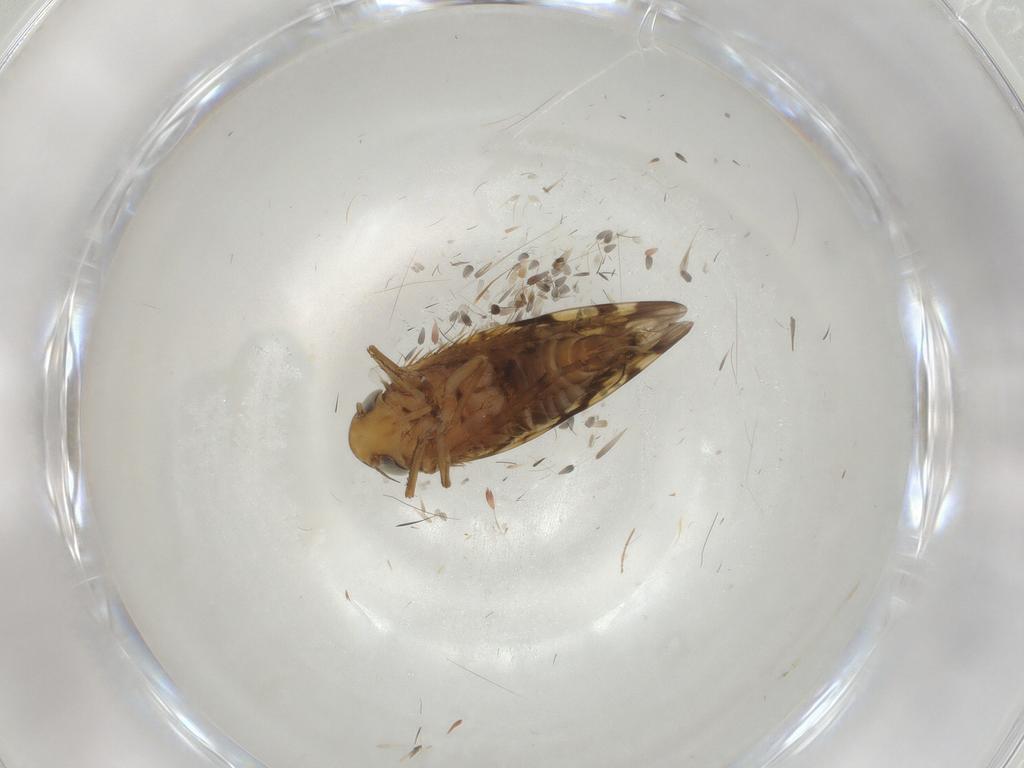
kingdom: Animalia
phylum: Arthropoda
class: Insecta
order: Hemiptera
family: Cicadellidae
